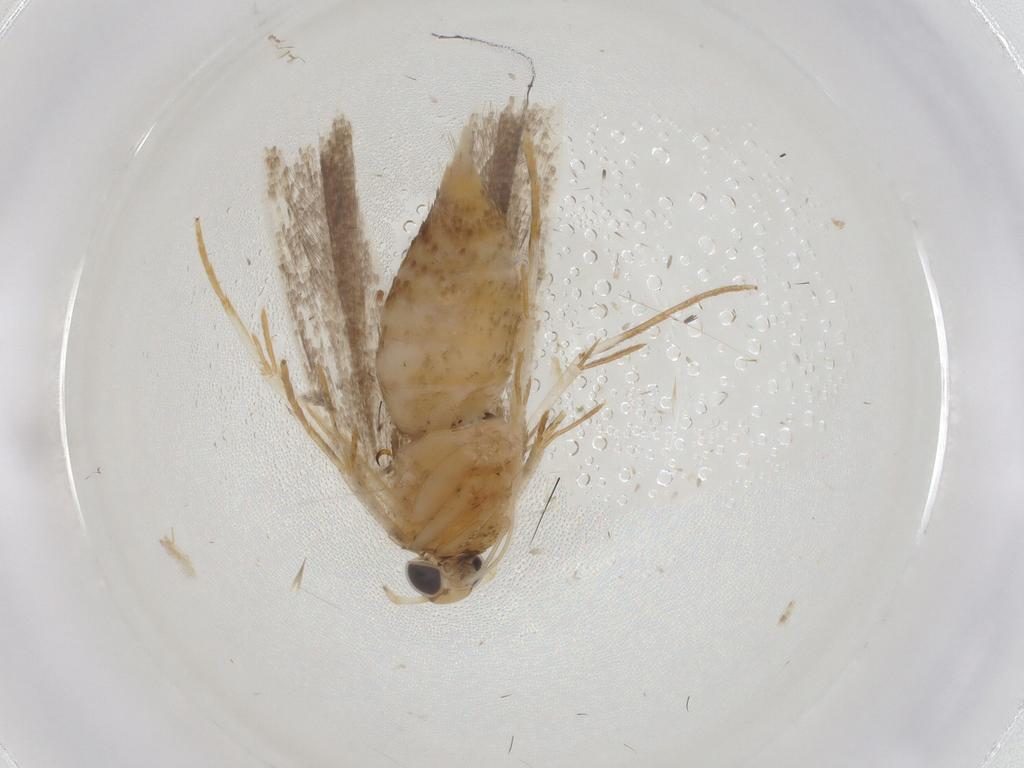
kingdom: Animalia
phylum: Arthropoda
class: Insecta
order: Lepidoptera
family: Gelechiidae
